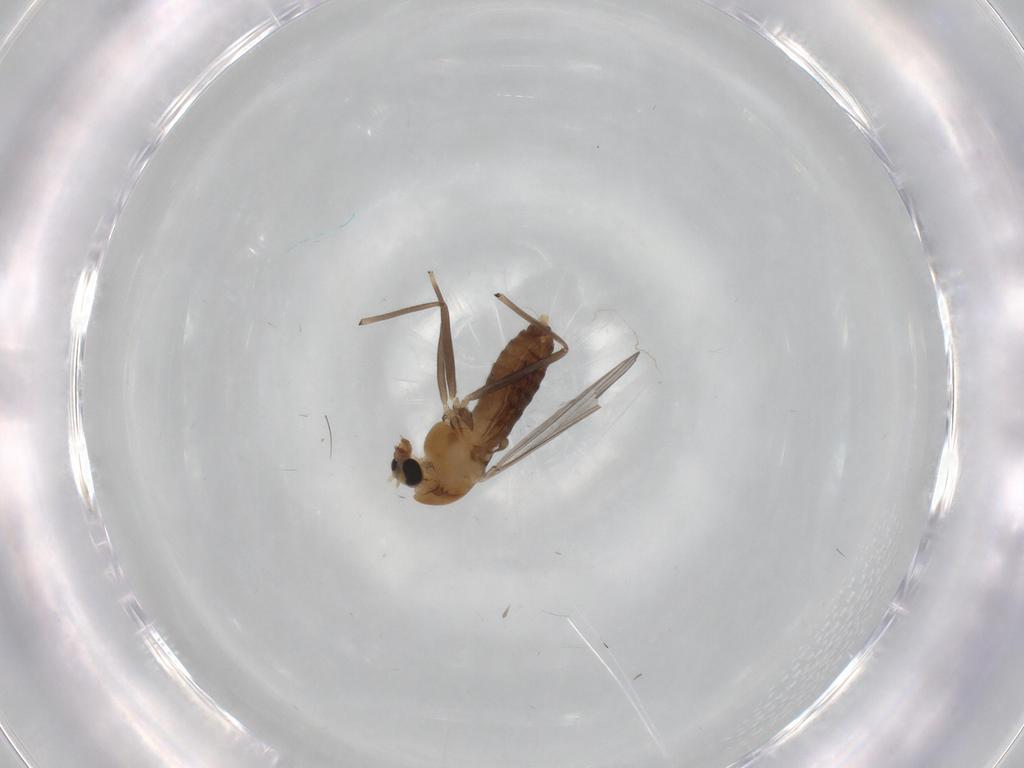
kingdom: Animalia
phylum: Arthropoda
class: Insecta
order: Diptera
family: Chironomidae
